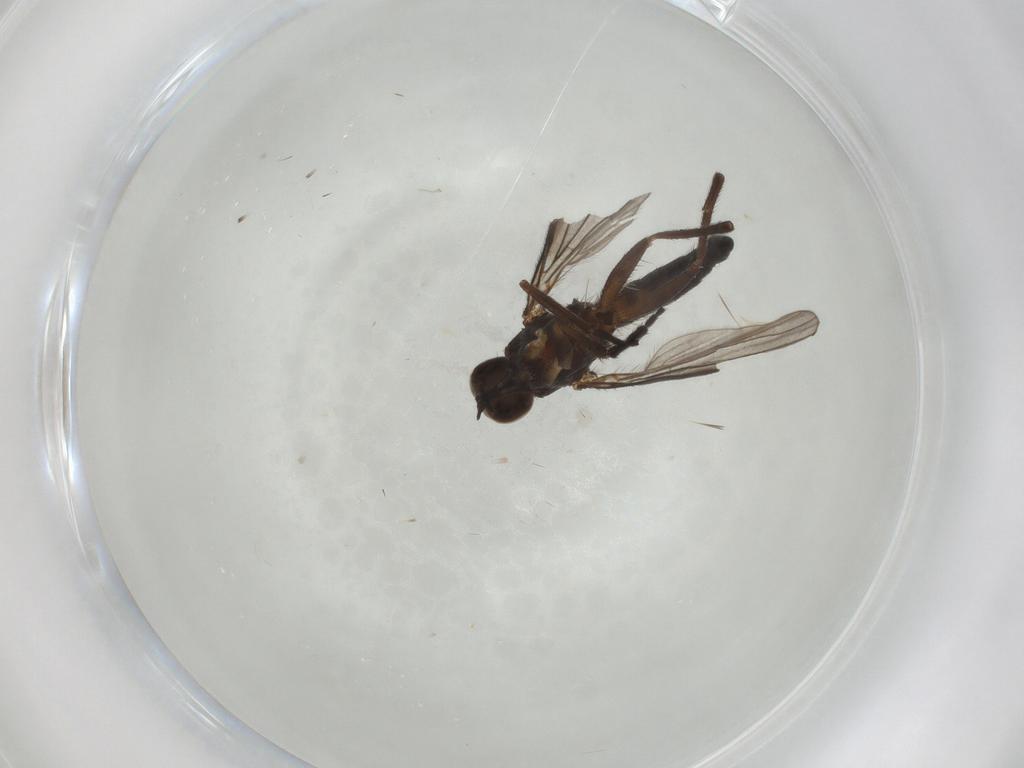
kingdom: Animalia
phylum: Arthropoda
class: Insecta
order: Diptera
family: Empididae
